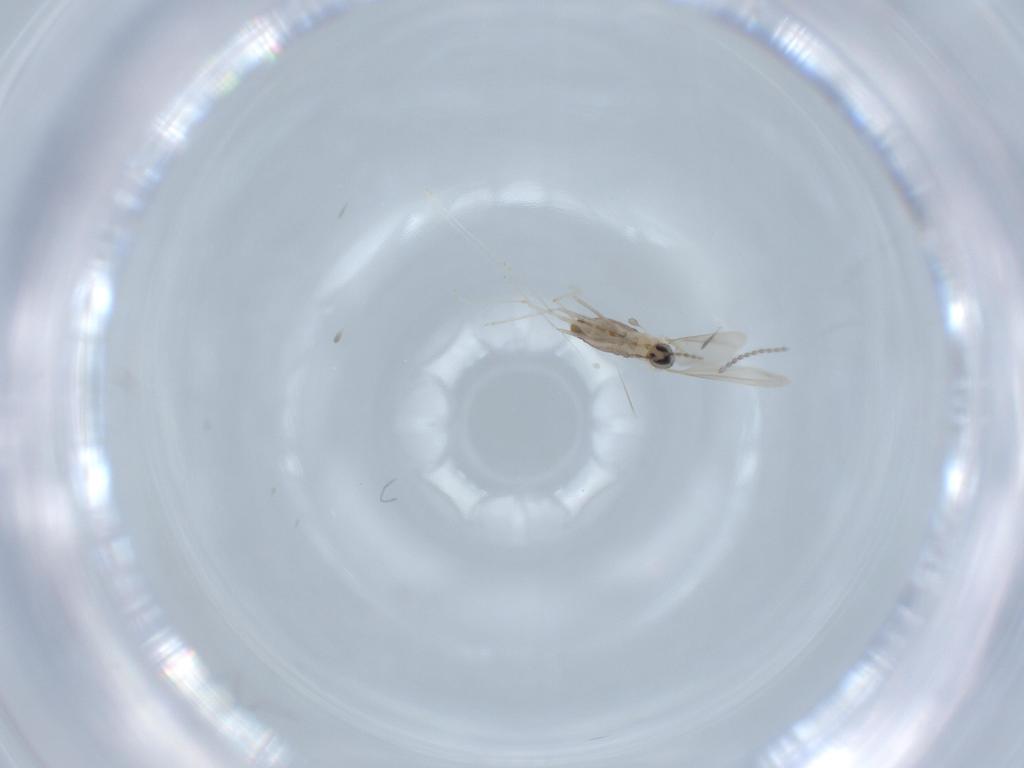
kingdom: Animalia
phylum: Arthropoda
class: Insecta
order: Diptera
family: Cecidomyiidae
